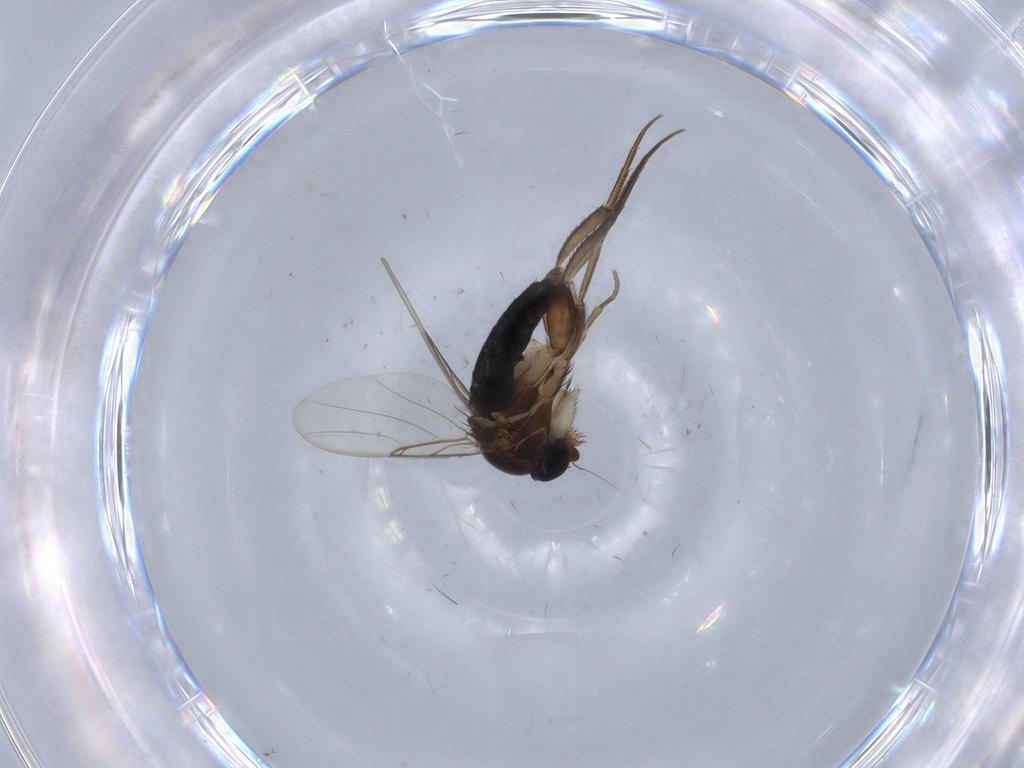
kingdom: Animalia
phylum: Arthropoda
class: Insecta
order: Diptera
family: Phoridae
